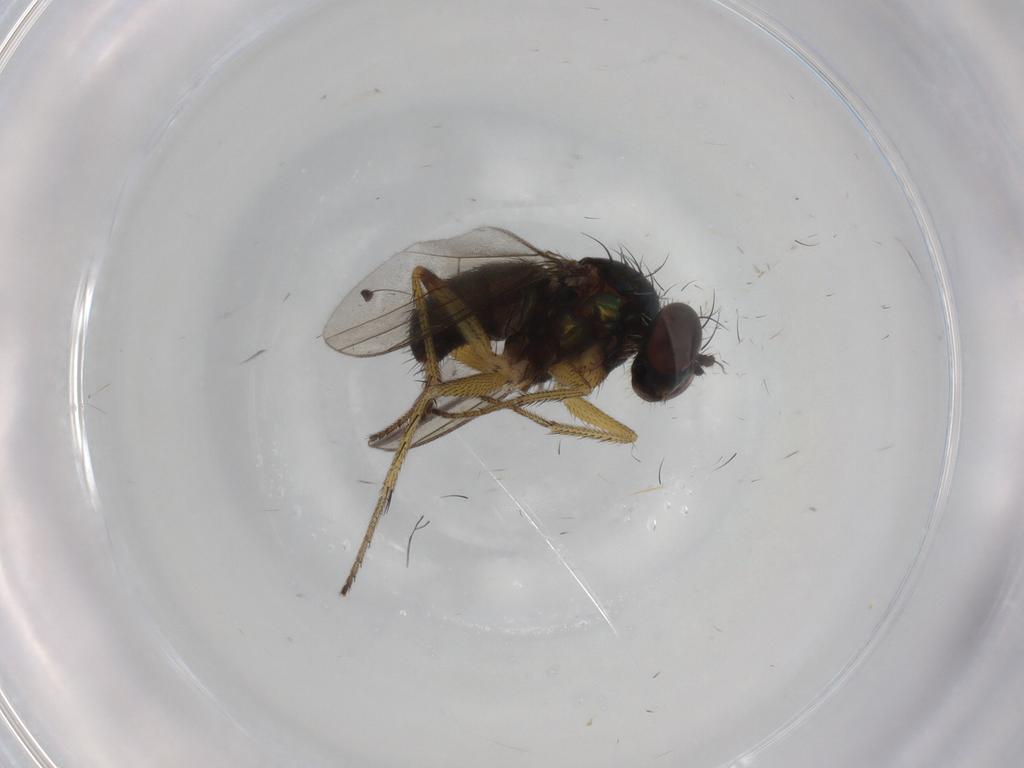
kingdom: Animalia
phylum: Arthropoda
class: Insecta
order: Diptera
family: Dolichopodidae
